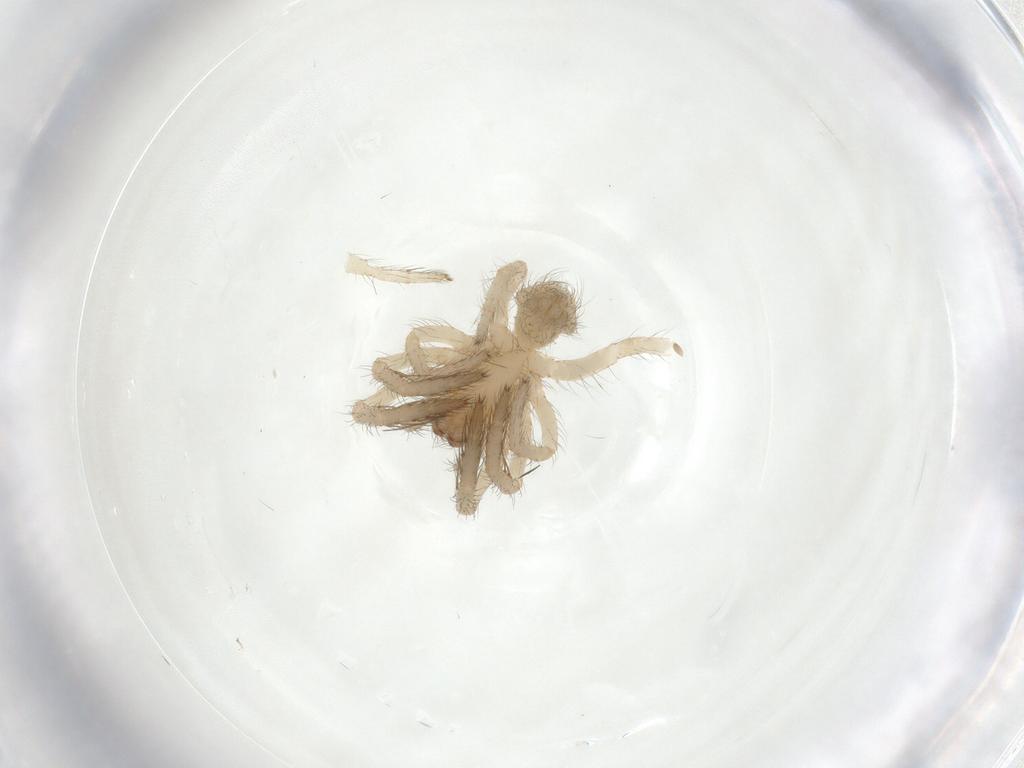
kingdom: Animalia
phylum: Arthropoda
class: Arachnida
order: Araneae
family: Segestriidae
